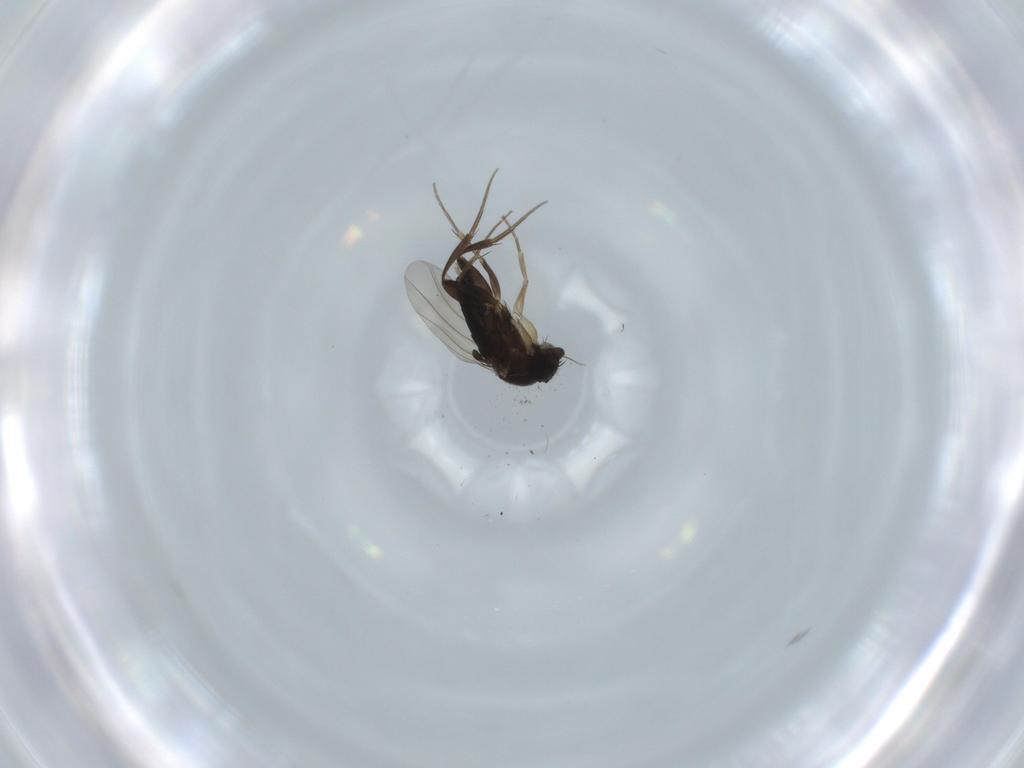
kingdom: Animalia
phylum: Arthropoda
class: Insecta
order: Diptera
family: Phoridae
